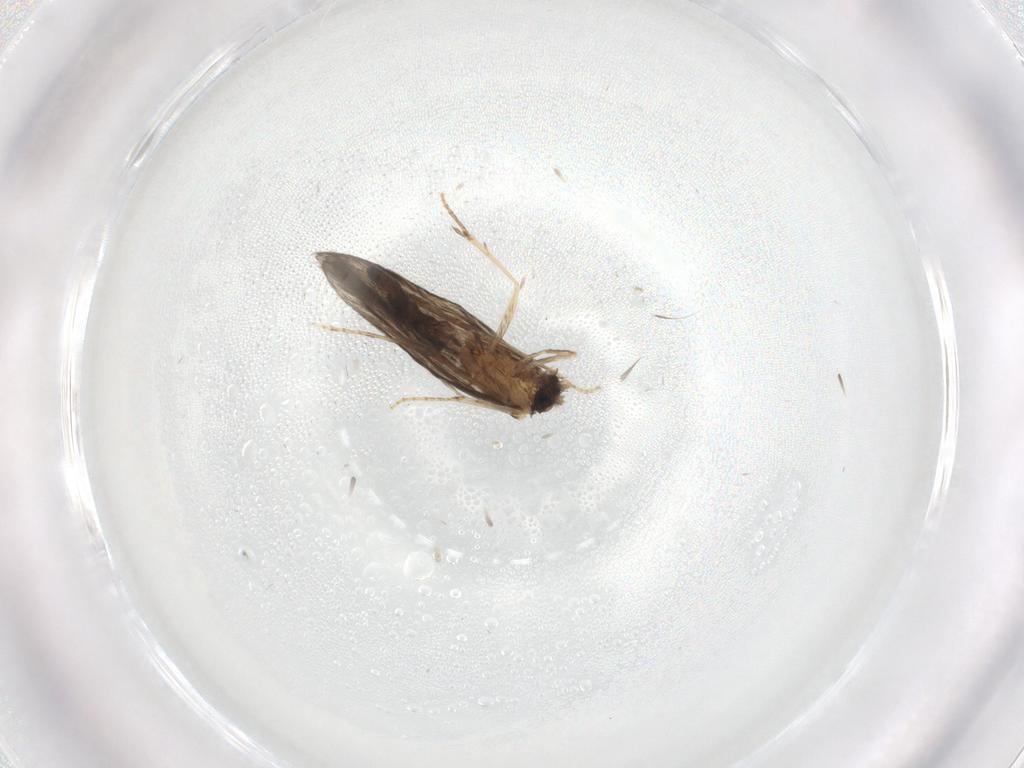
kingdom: Animalia
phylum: Arthropoda
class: Insecta
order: Trichoptera
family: Hydroptilidae
